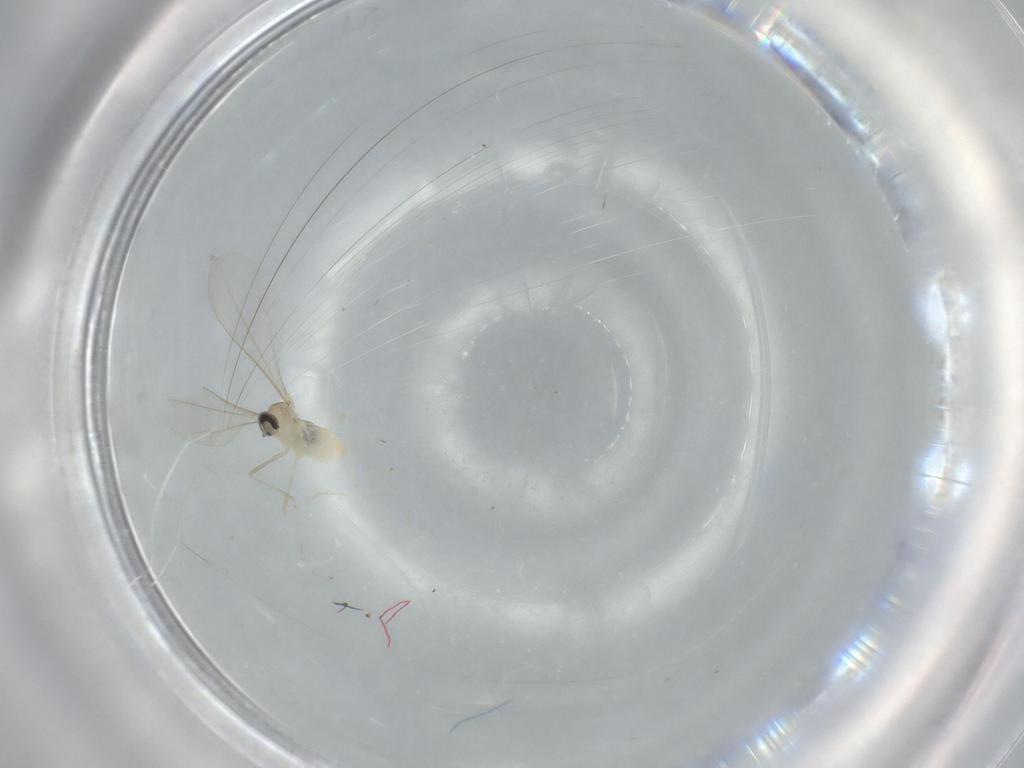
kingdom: Animalia
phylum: Arthropoda
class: Insecta
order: Diptera
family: Cecidomyiidae
